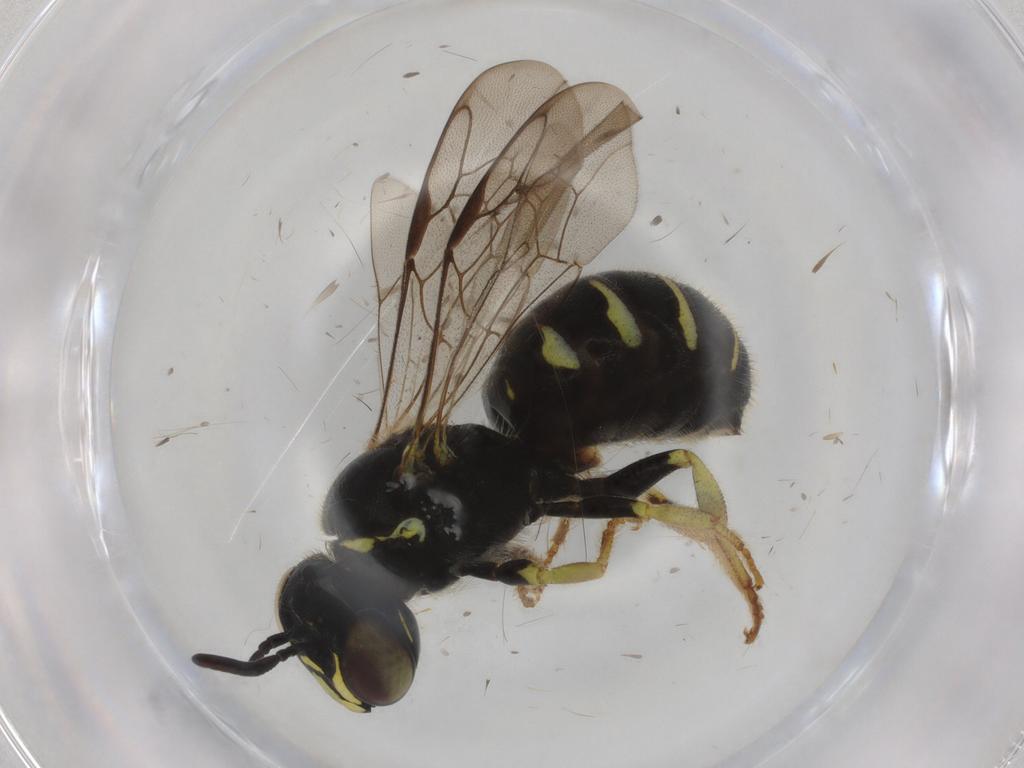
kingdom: Animalia
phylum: Arthropoda
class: Insecta
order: Hymenoptera
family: Apidae
